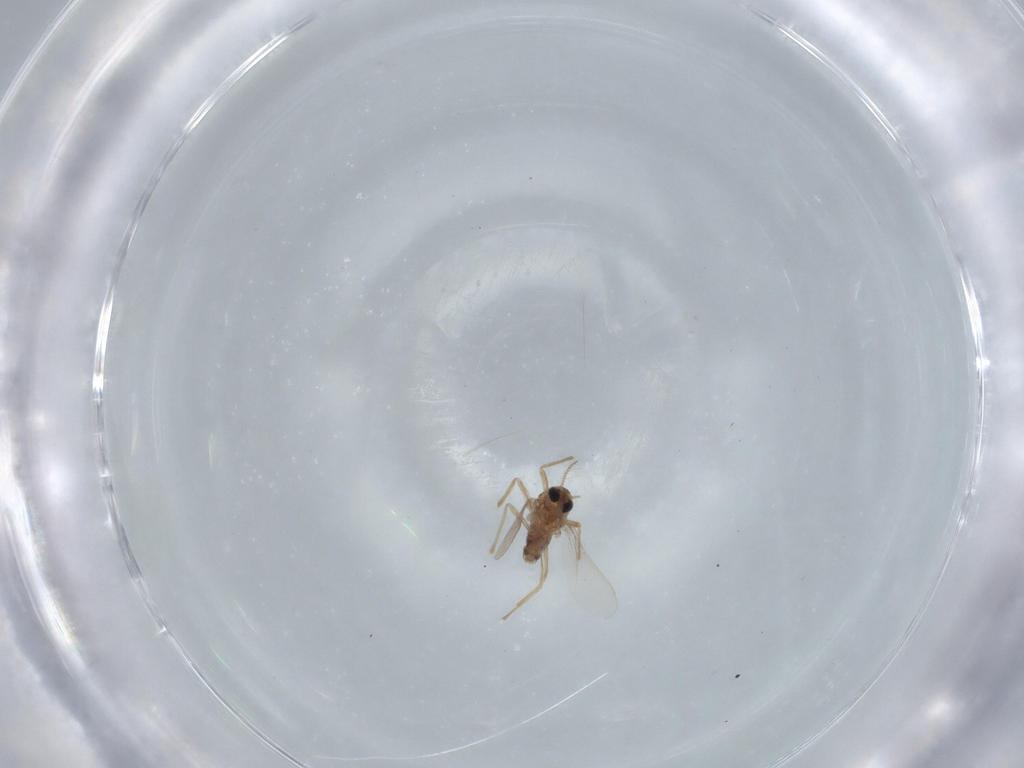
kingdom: Animalia
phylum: Arthropoda
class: Insecta
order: Diptera
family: Chironomidae
